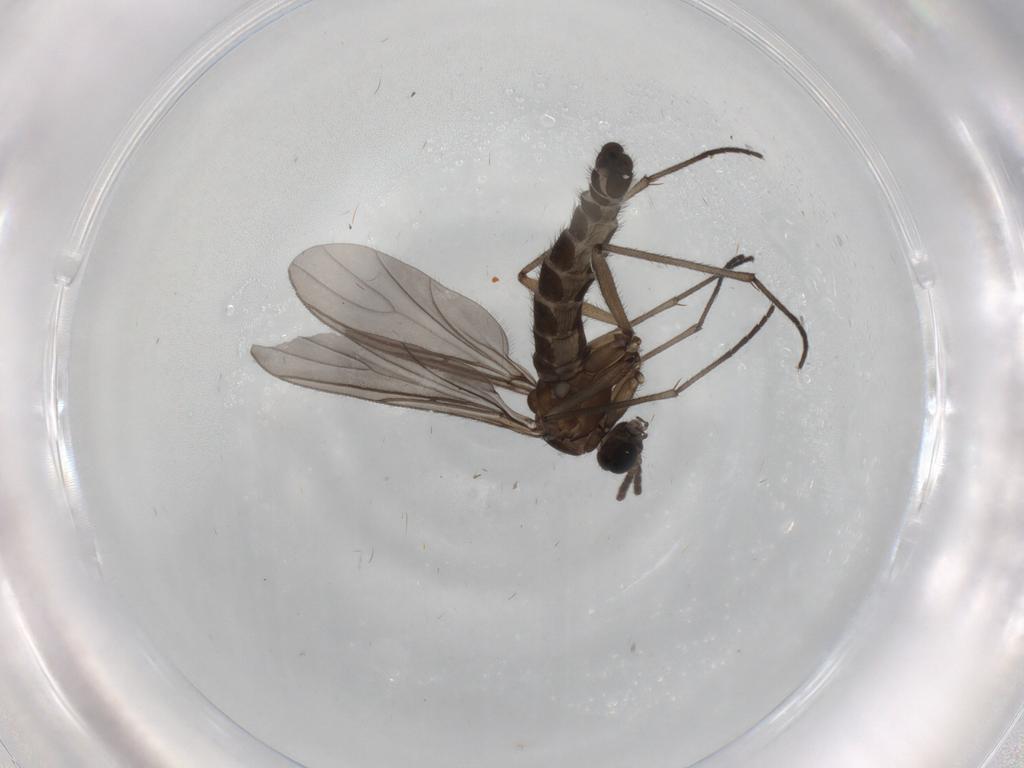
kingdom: Animalia
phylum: Arthropoda
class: Insecta
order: Diptera
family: Sciaridae
